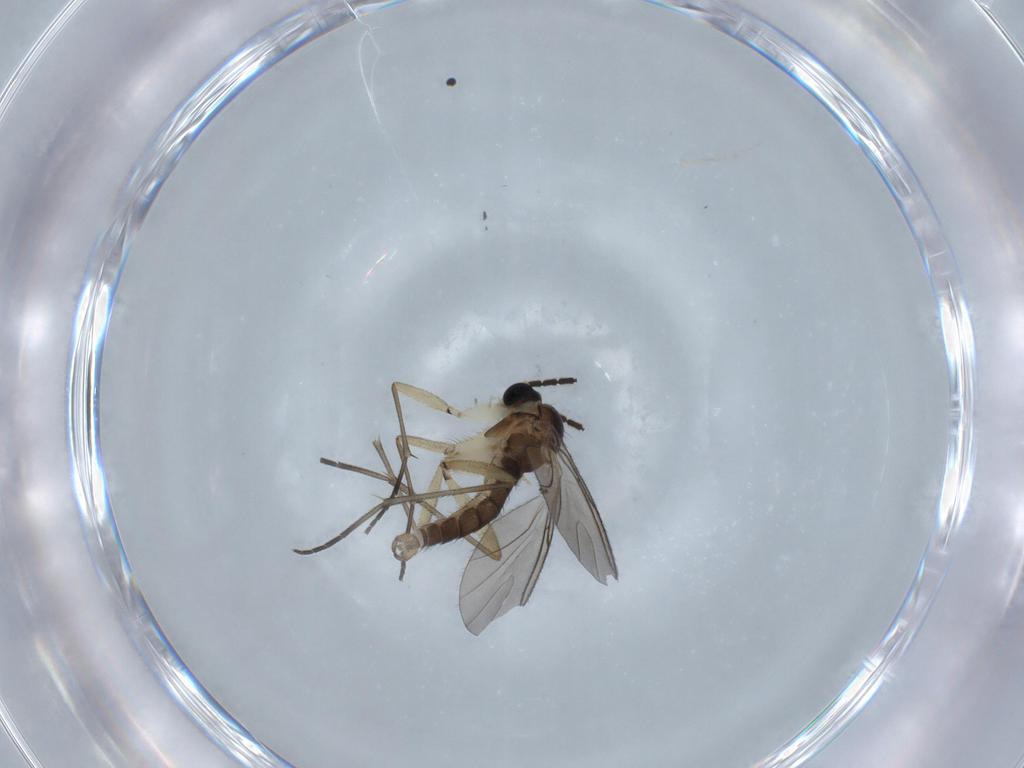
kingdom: Animalia
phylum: Arthropoda
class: Insecta
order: Diptera
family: Sciaridae
